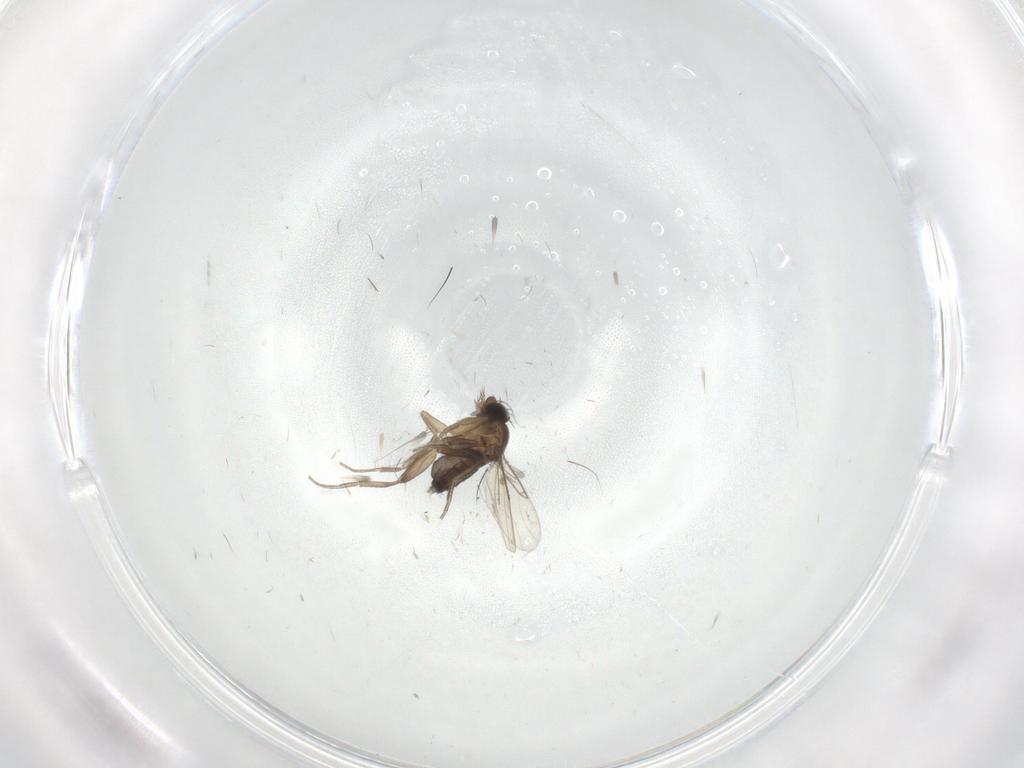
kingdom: Animalia
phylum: Arthropoda
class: Insecta
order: Diptera
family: Phoridae
